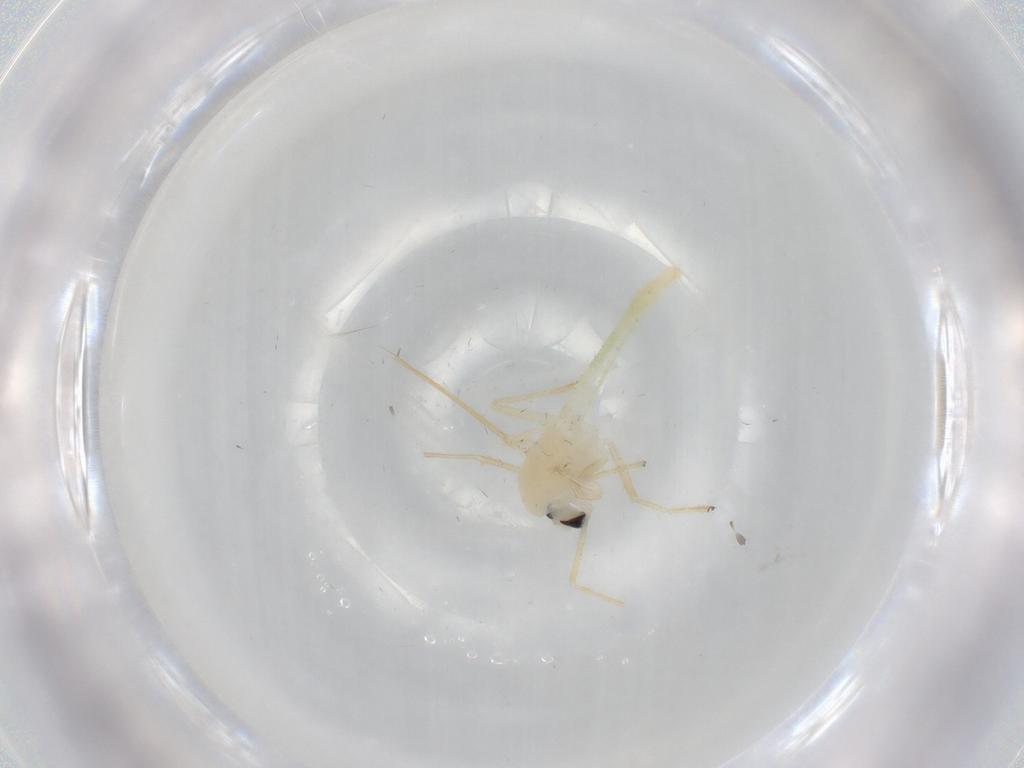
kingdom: Animalia
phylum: Arthropoda
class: Insecta
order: Diptera
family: Chironomidae
